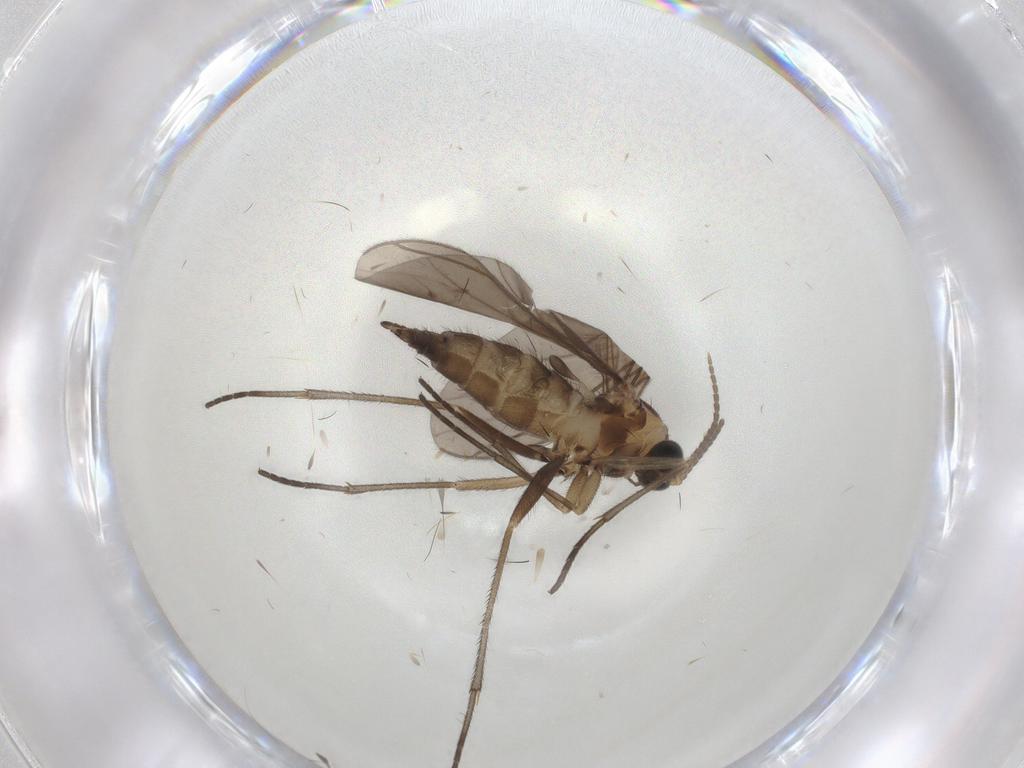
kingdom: Animalia
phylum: Arthropoda
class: Insecta
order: Diptera
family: Sciaridae
